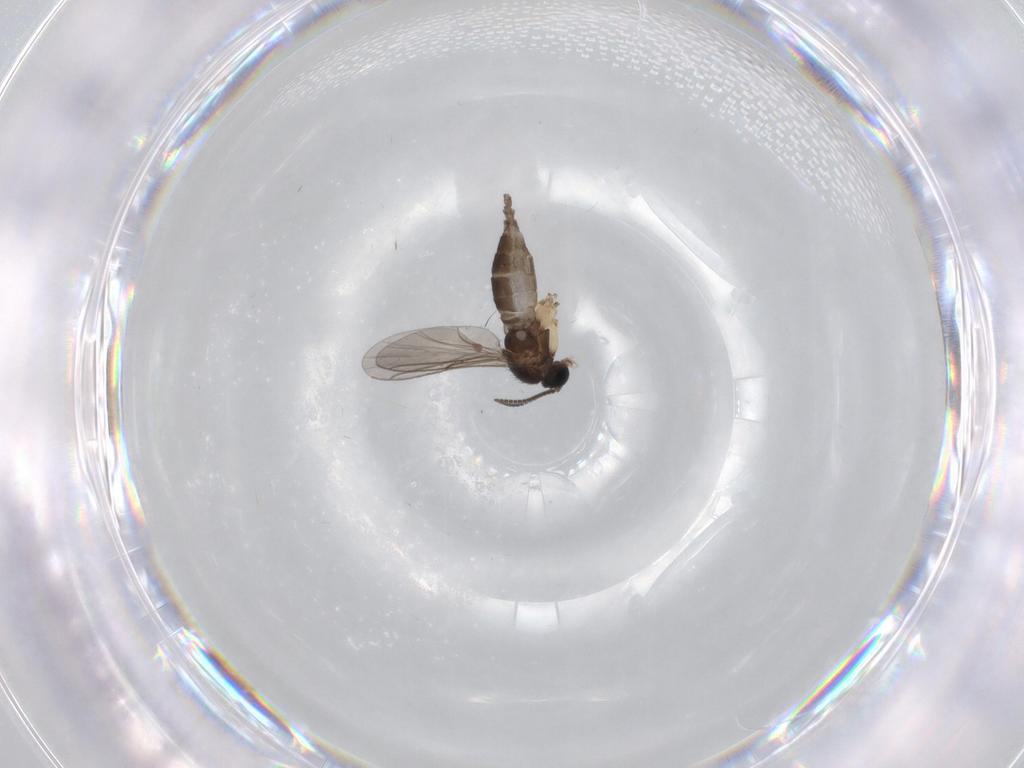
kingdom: Animalia
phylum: Arthropoda
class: Insecta
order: Diptera
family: Sciaridae
